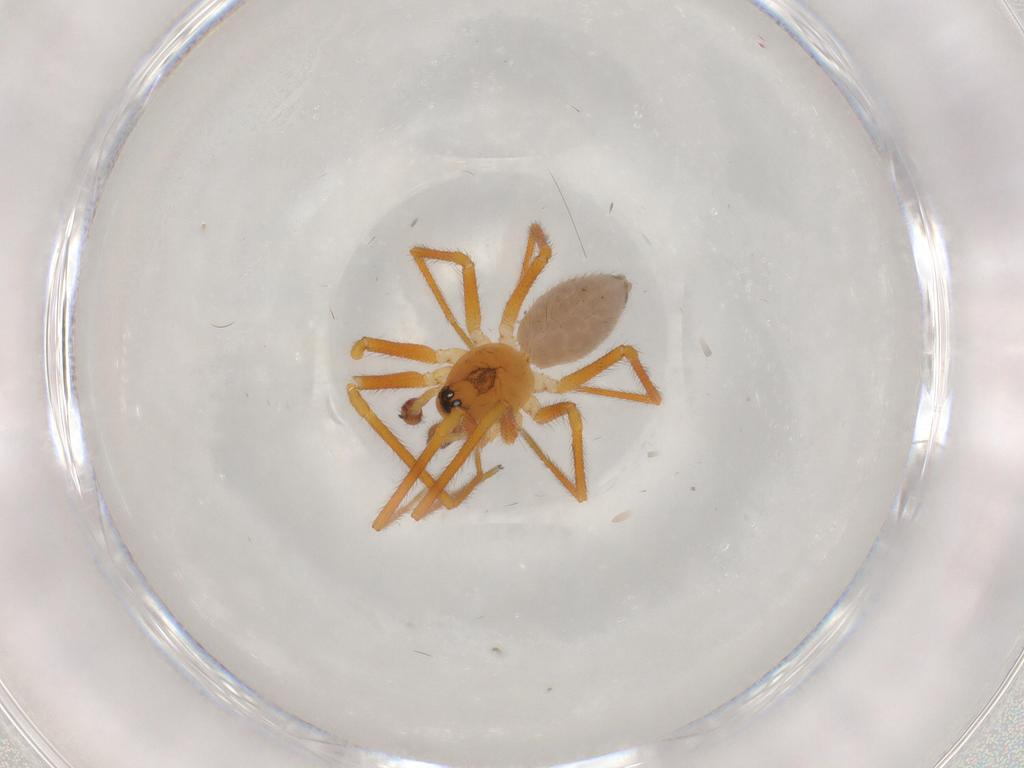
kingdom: Animalia
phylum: Arthropoda
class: Arachnida
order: Araneae
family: Linyphiidae
